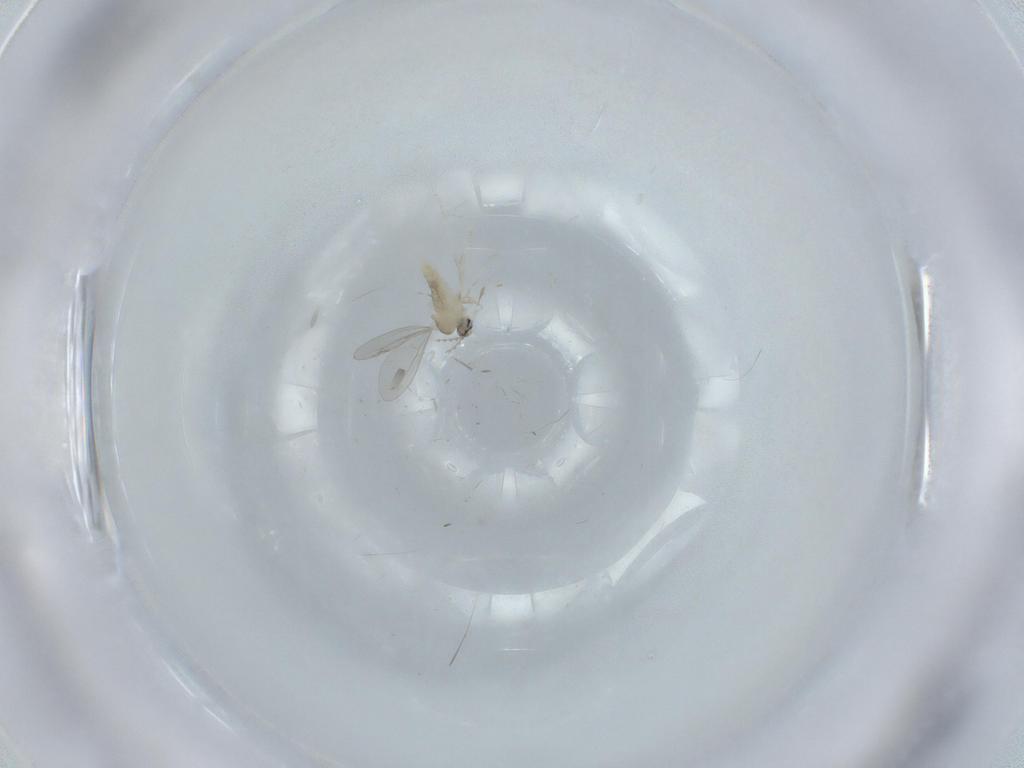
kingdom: Animalia
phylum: Arthropoda
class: Insecta
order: Diptera
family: Cecidomyiidae
